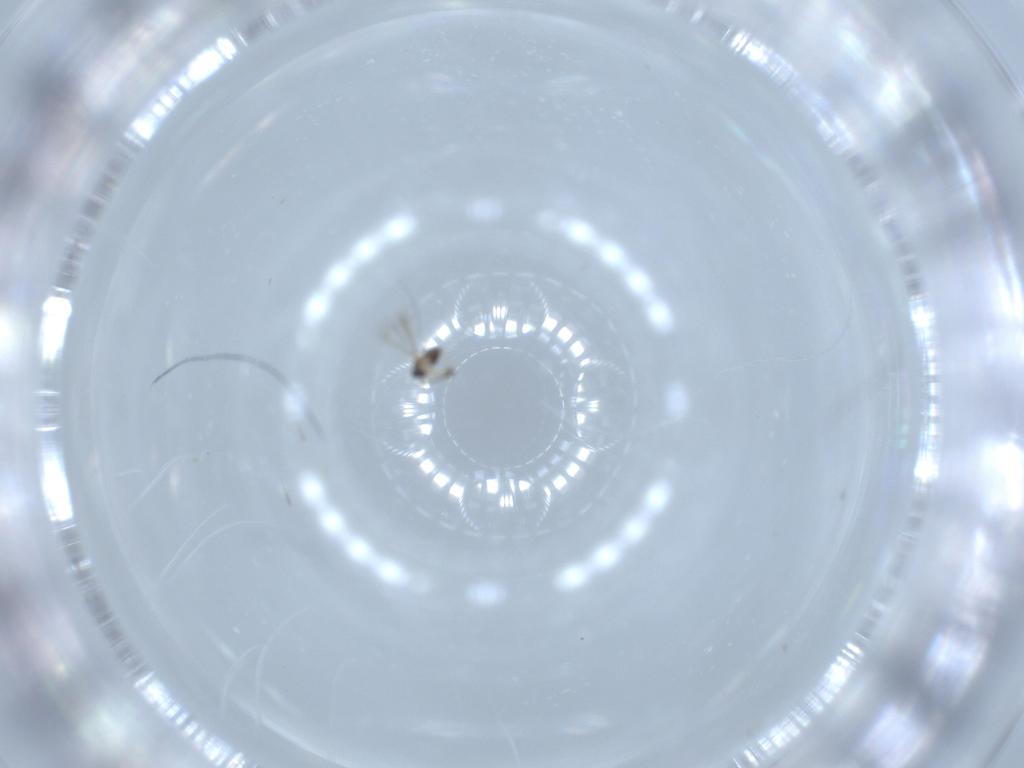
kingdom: Animalia
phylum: Arthropoda
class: Insecta
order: Hymenoptera
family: Mymaridae
